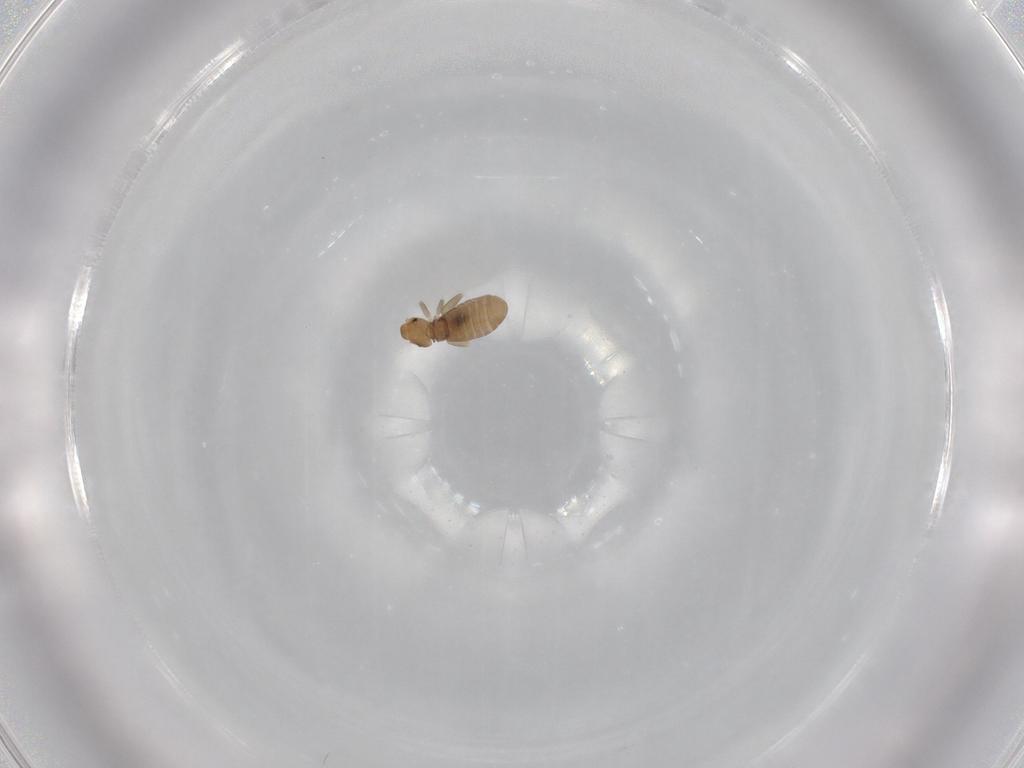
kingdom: Animalia
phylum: Arthropoda
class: Insecta
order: Psocodea
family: Liposcelididae
